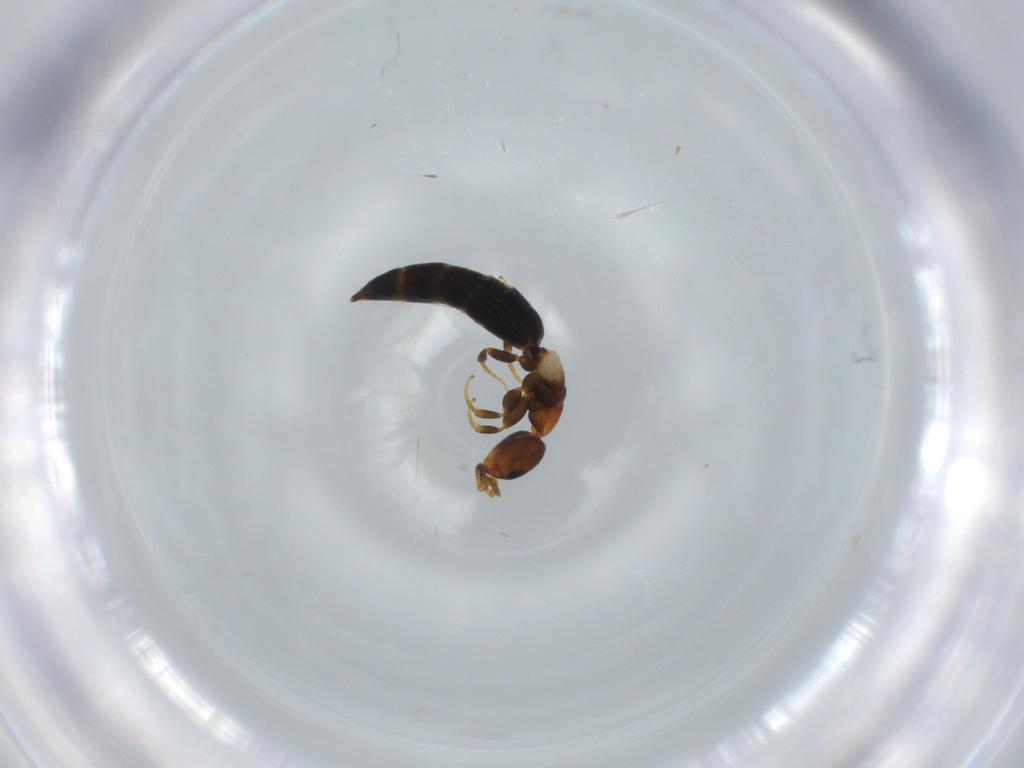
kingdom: Animalia
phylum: Arthropoda
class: Insecta
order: Hymenoptera
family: Bethylidae
